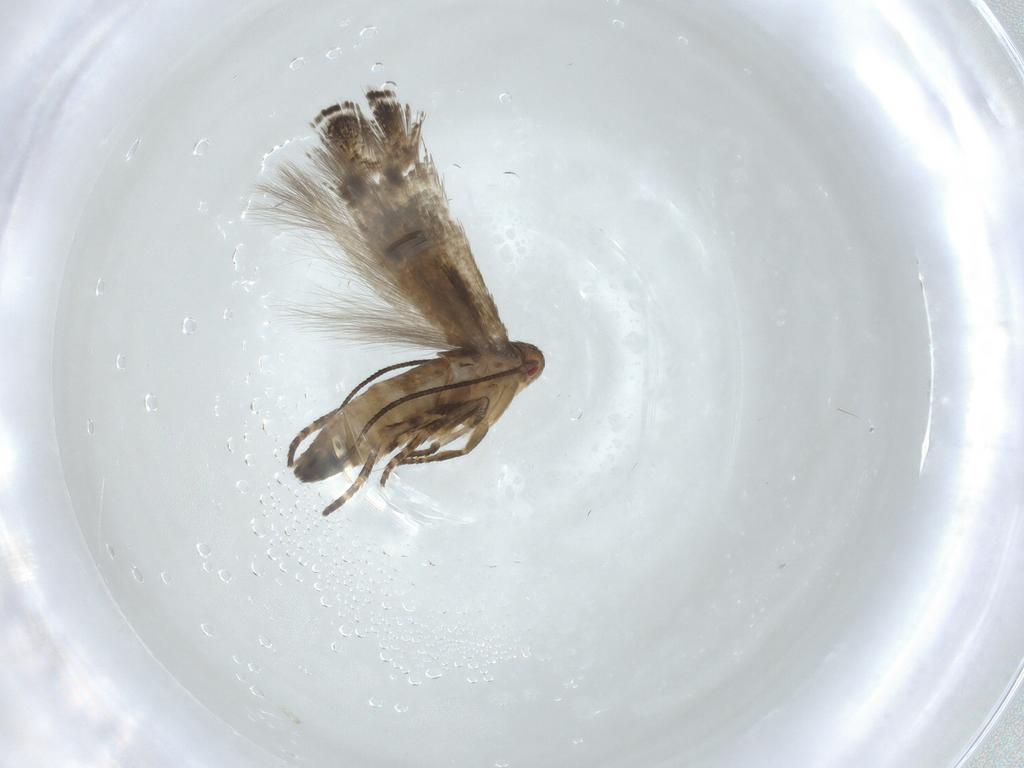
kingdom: Animalia
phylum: Arthropoda
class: Insecta
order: Lepidoptera
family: Momphidae
